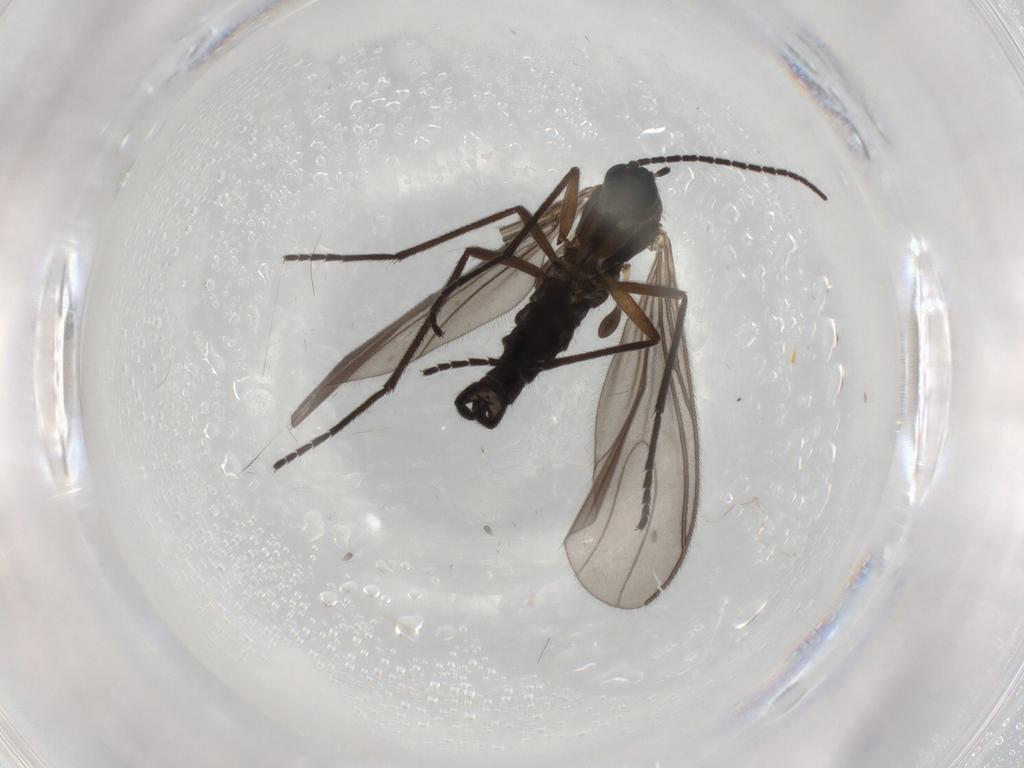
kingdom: Animalia
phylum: Arthropoda
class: Insecta
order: Diptera
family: Sciaridae
